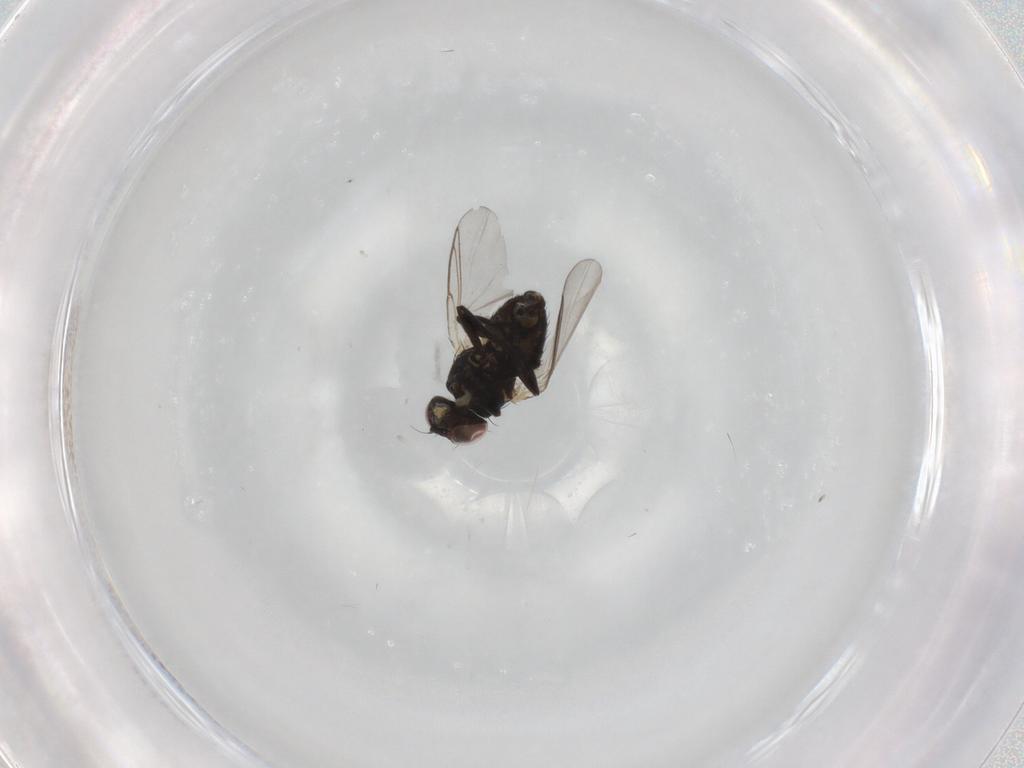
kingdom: Animalia
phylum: Arthropoda
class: Insecta
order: Diptera
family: Agromyzidae
